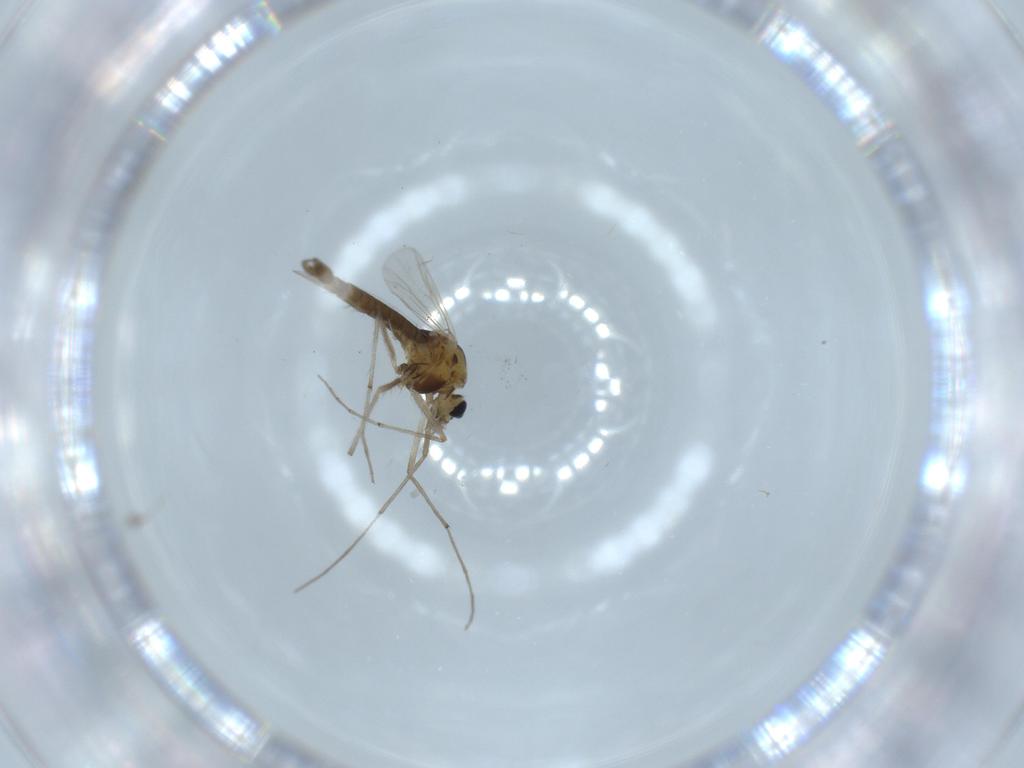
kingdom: Animalia
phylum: Arthropoda
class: Insecta
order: Diptera
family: Chironomidae
